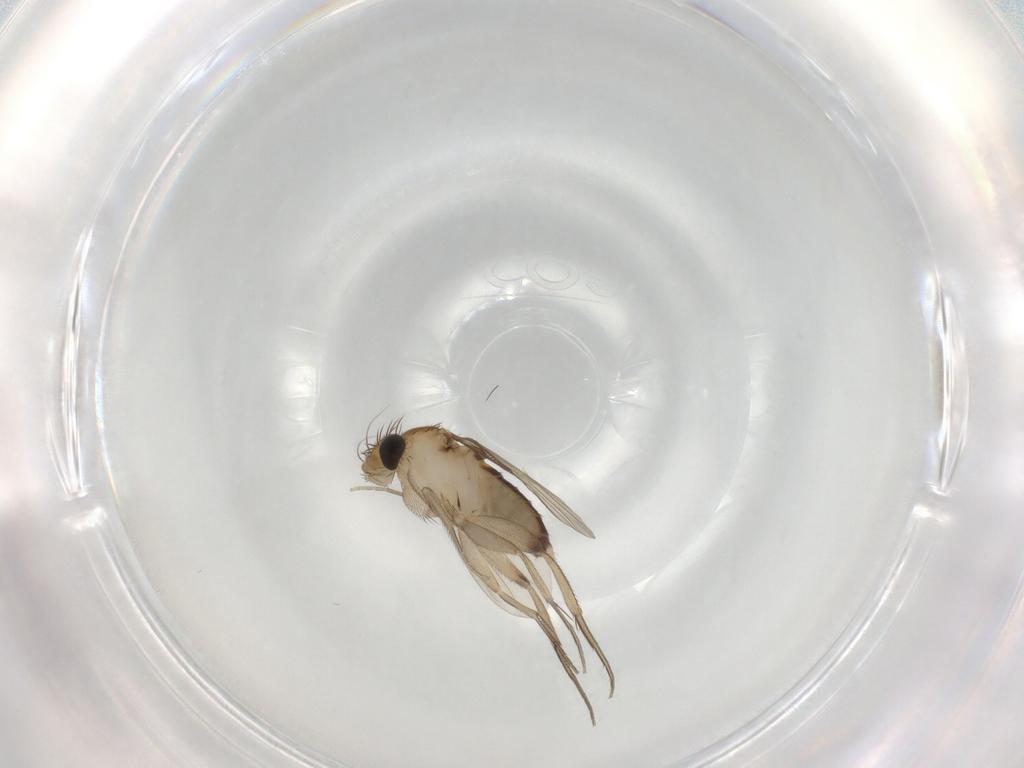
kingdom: Animalia
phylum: Arthropoda
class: Insecta
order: Diptera
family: Phoridae
